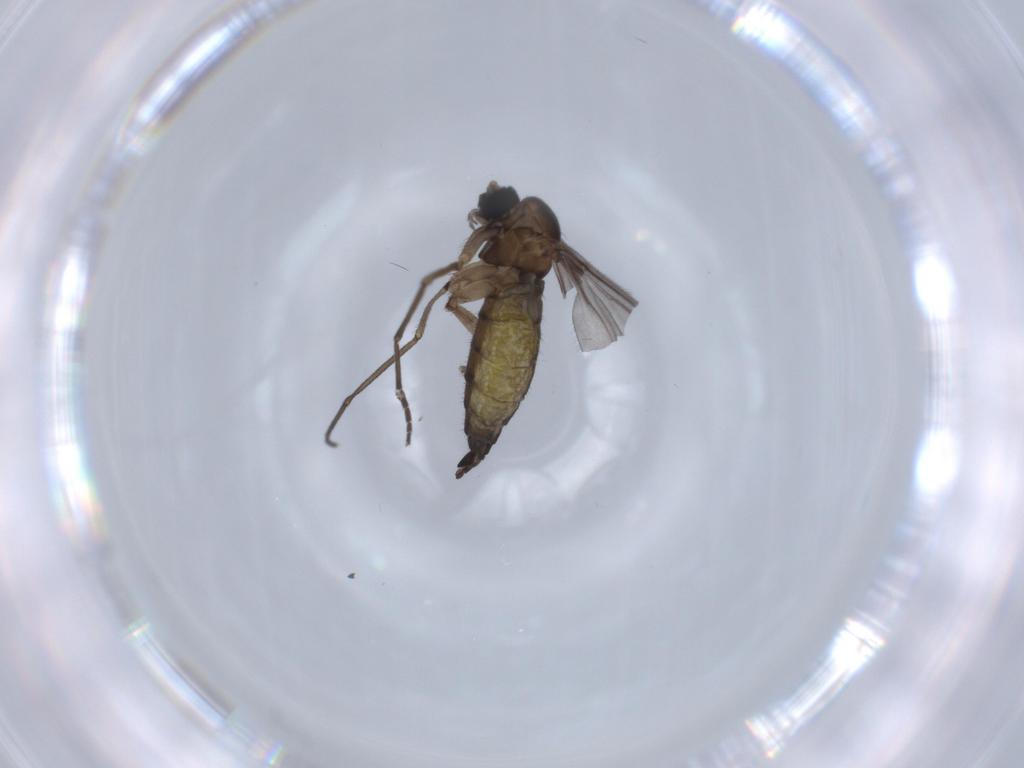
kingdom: Animalia
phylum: Arthropoda
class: Insecta
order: Diptera
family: Sciaridae
